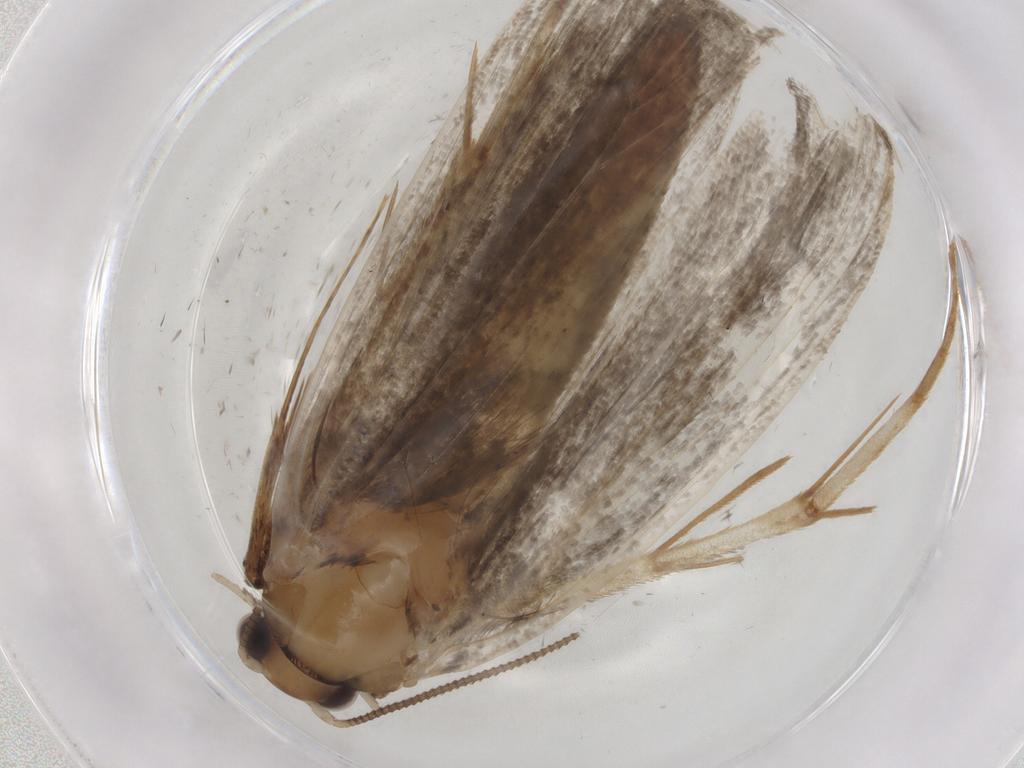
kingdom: Animalia
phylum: Arthropoda
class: Insecta
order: Lepidoptera
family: Tineidae
